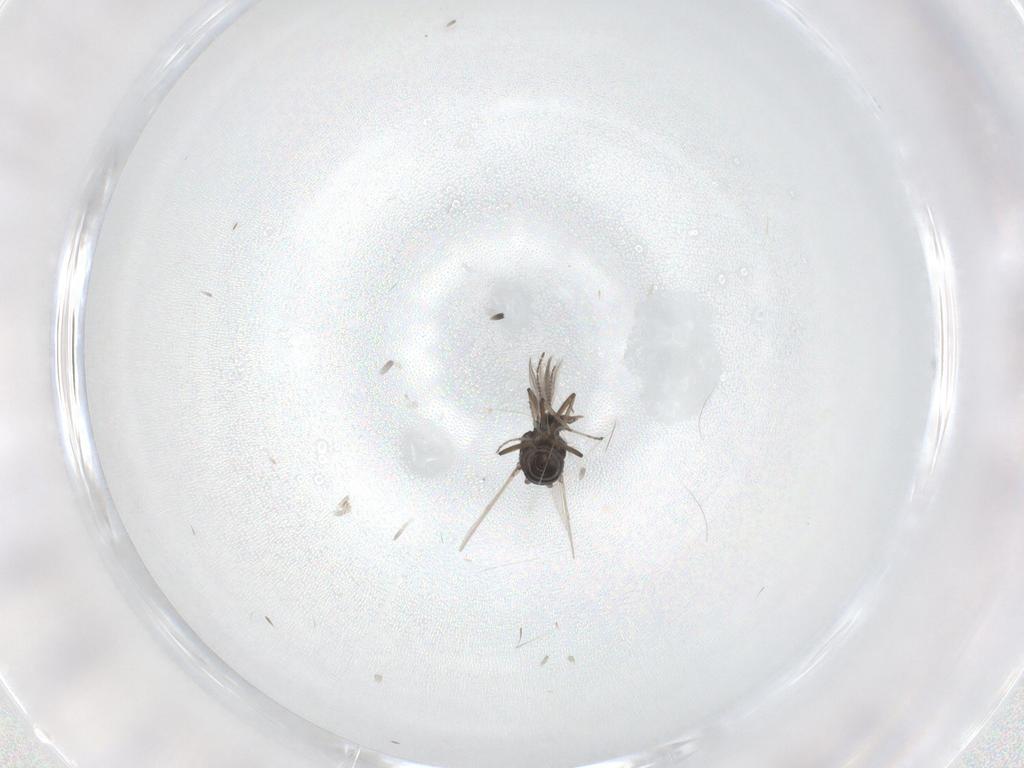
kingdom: Animalia
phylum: Arthropoda
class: Insecta
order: Diptera
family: Ceratopogonidae
